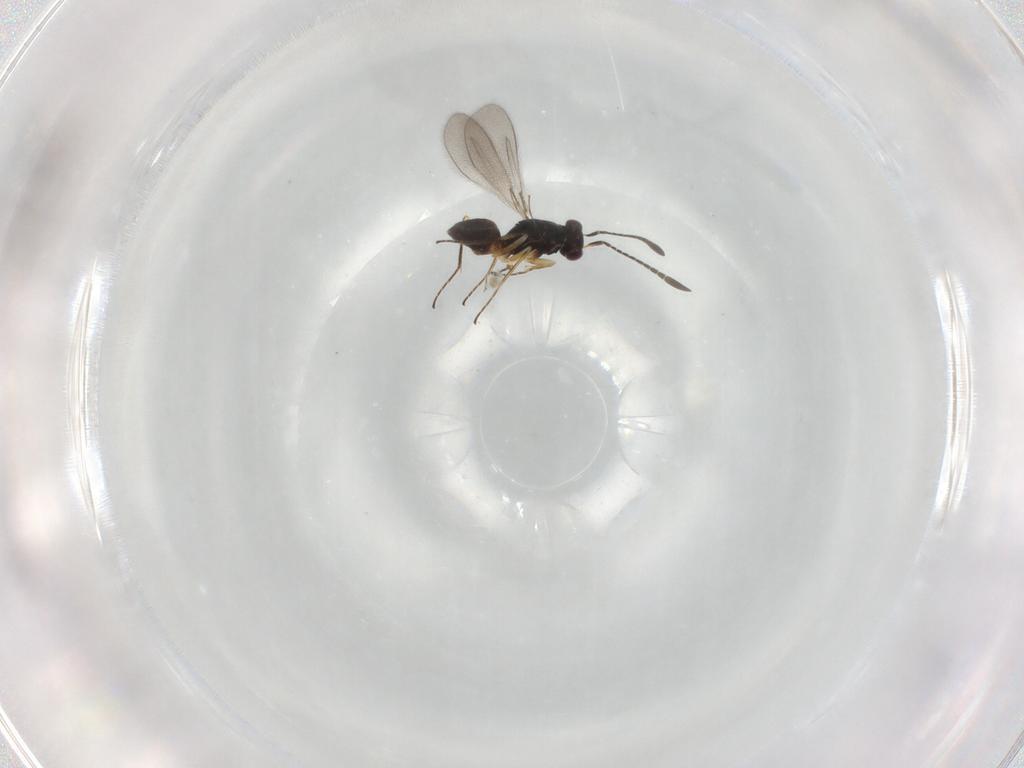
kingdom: Animalia
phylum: Arthropoda
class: Insecta
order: Hymenoptera
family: Mymaridae
